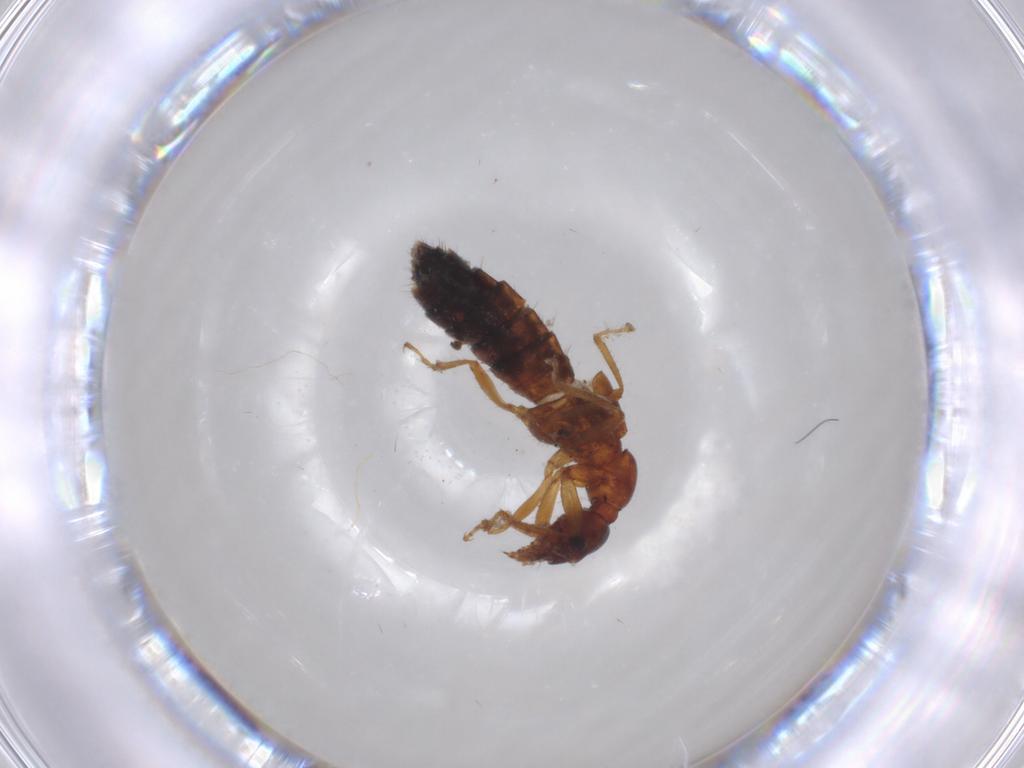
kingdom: Animalia
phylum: Arthropoda
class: Insecta
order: Coleoptera
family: Staphylinidae
